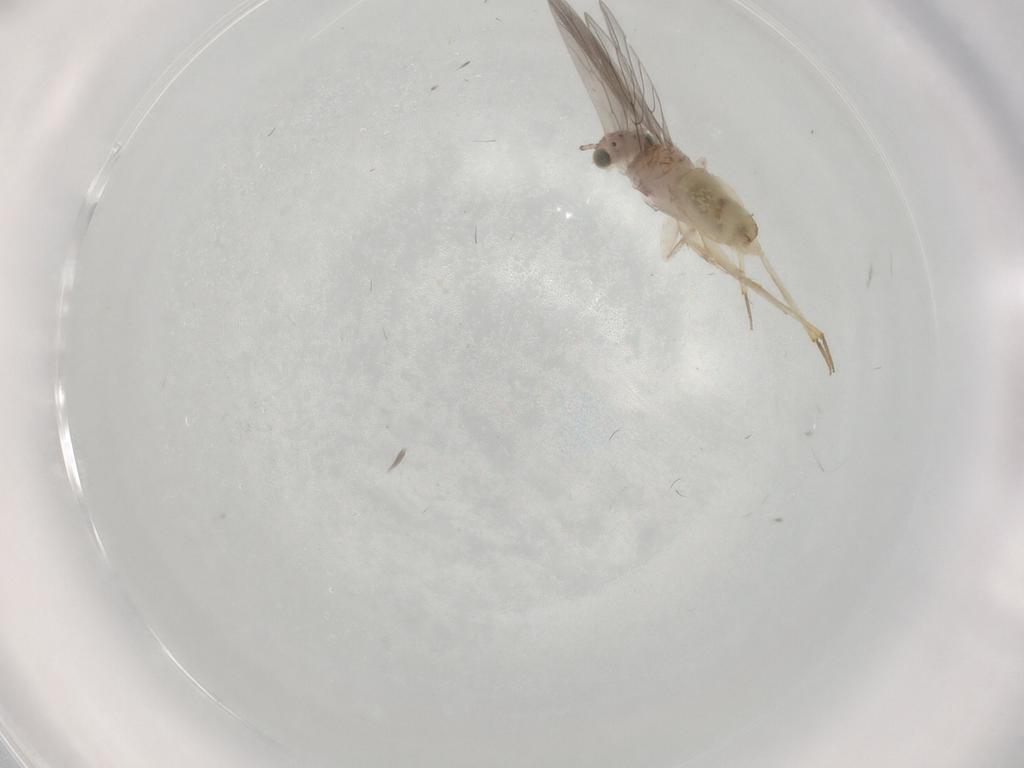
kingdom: Animalia
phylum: Arthropoda
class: Insecta
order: Psocodea
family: Lepidopsocidae
